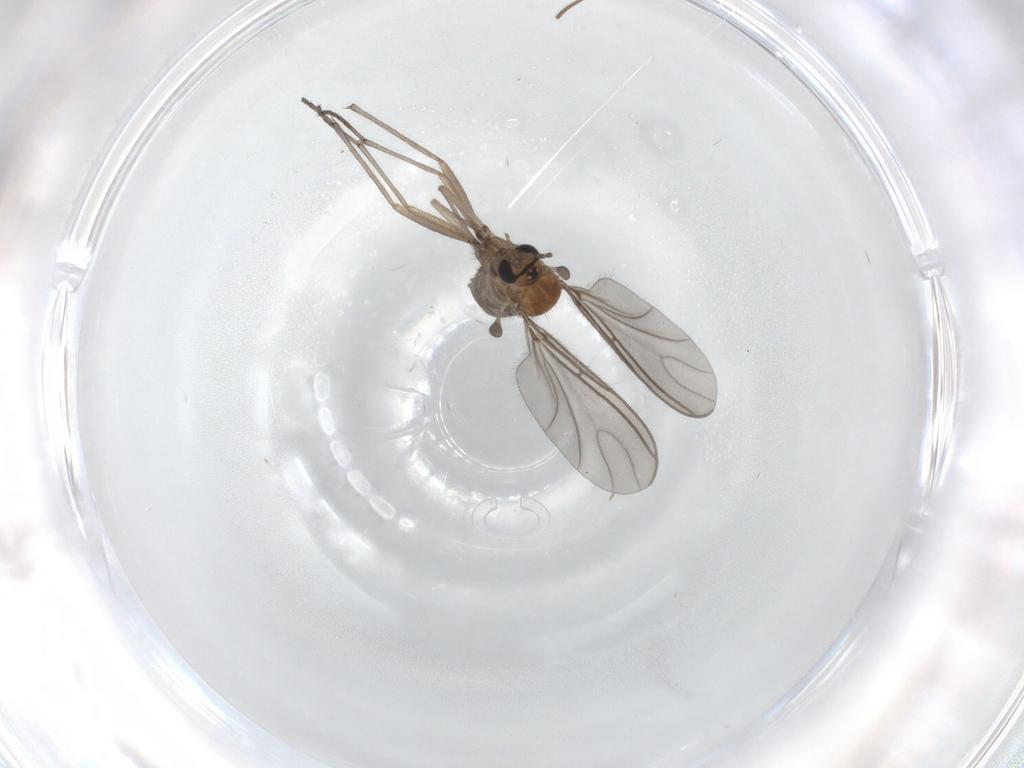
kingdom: Animalia
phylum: Arthropoda
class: Insecta
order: Diptera
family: Sciaridae
